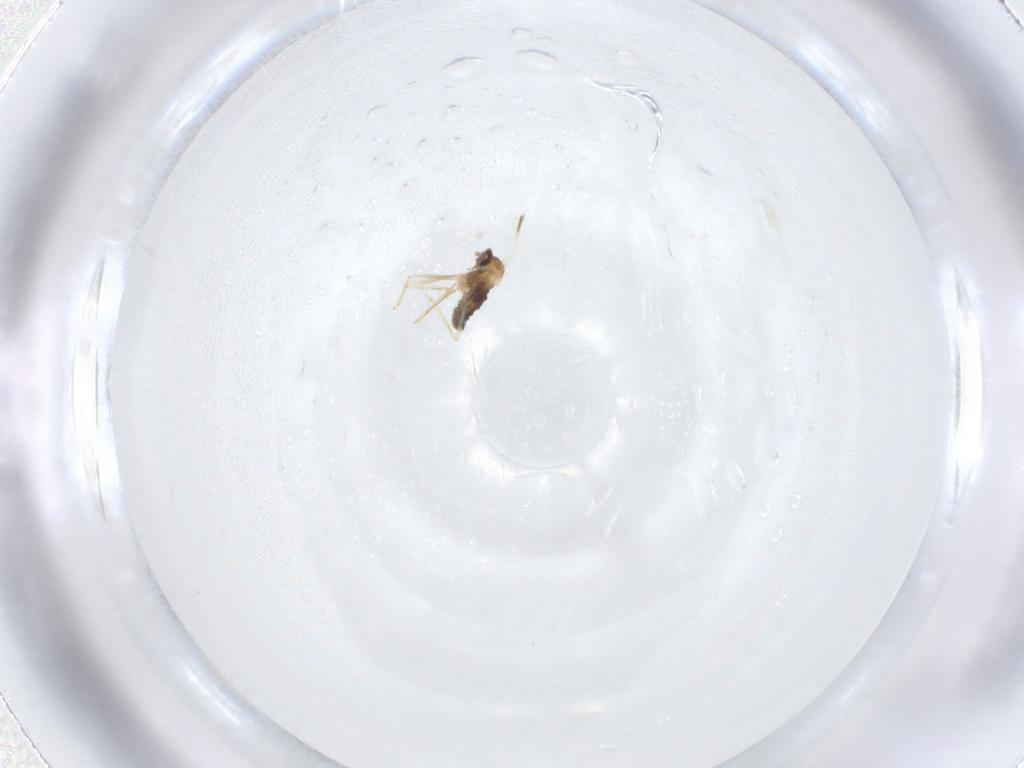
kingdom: Animalia
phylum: Arthropoda
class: Insecta
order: Diptera
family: Cecidomyiidae
